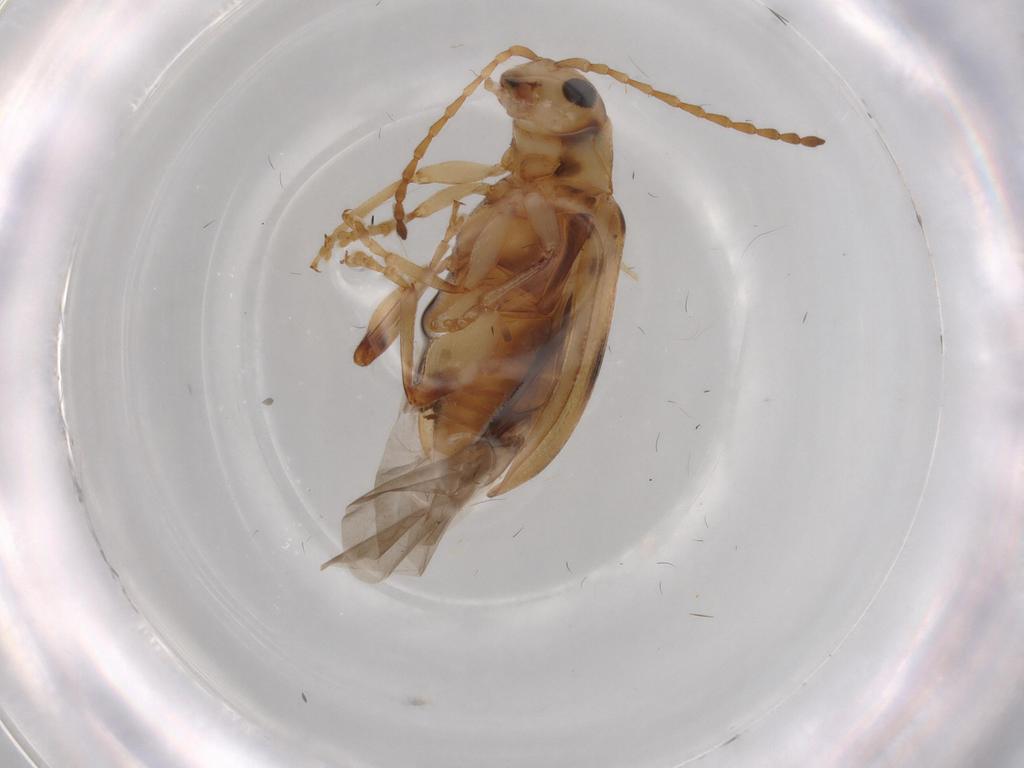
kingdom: Animalia
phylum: Arthropoda
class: Insecta
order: Coleoptera
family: Chrysomelidae
